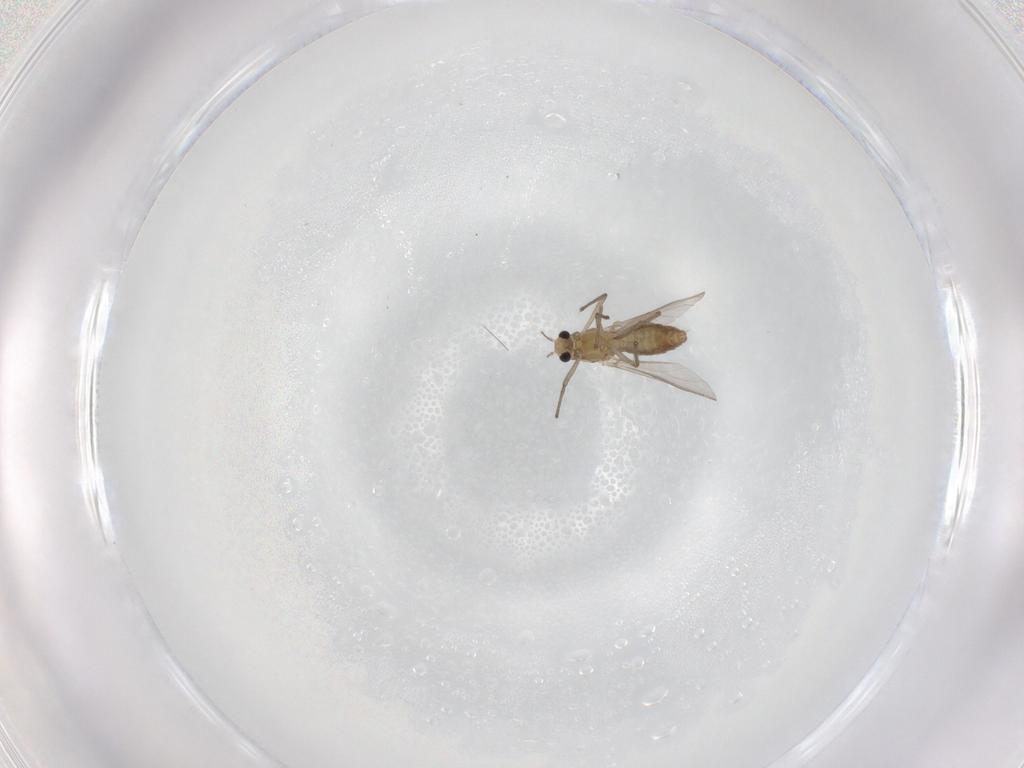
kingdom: Animalia
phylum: Arthropoda
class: Insecta
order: Diptera
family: Chironomidae
